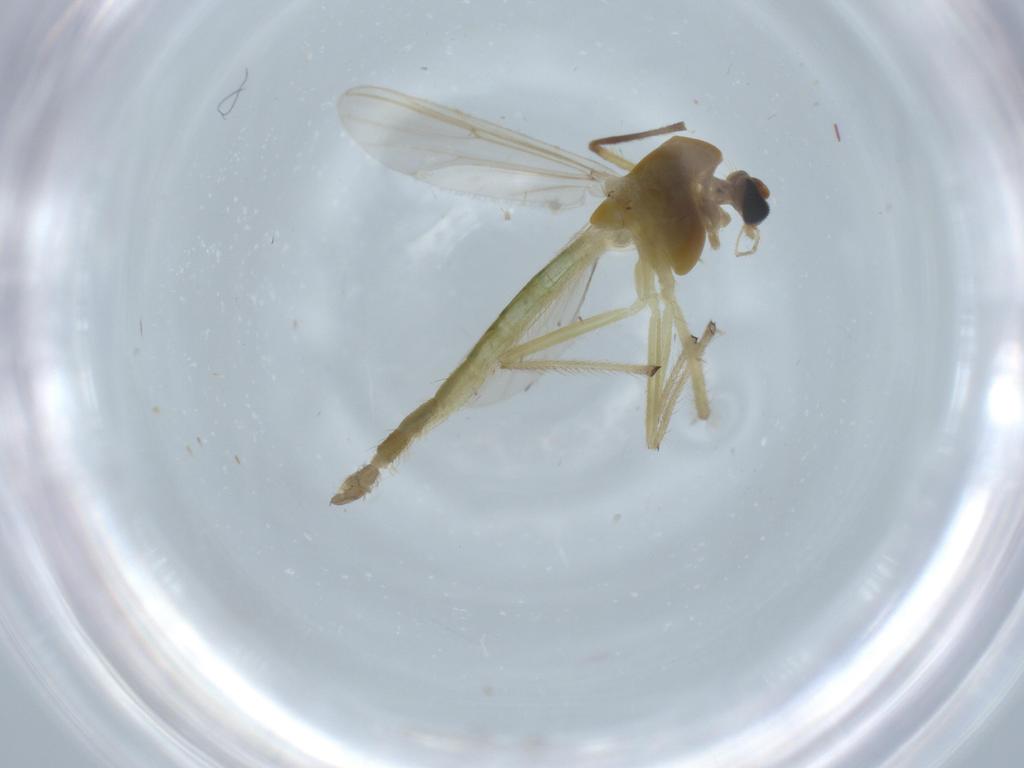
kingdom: Animalia
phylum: Arthropoda
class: Insecta
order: Diptera
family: Chironomidae
